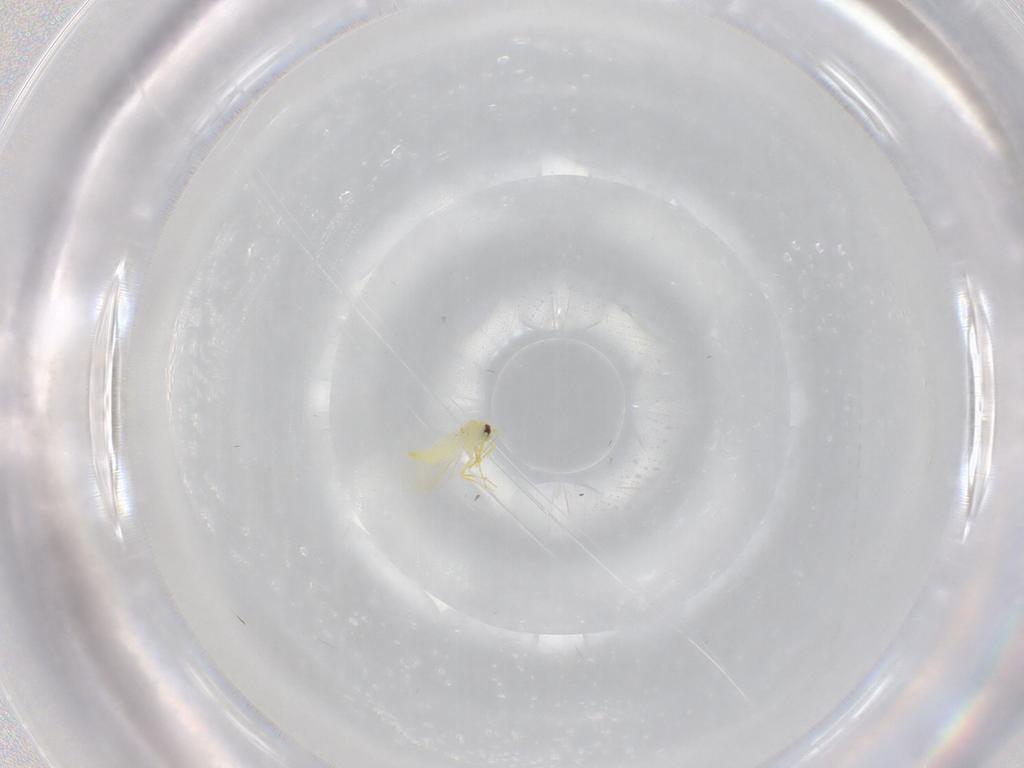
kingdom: Animalia
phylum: Arthropoda
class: Insecta
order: Hemiptera
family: Aleyrodidae
